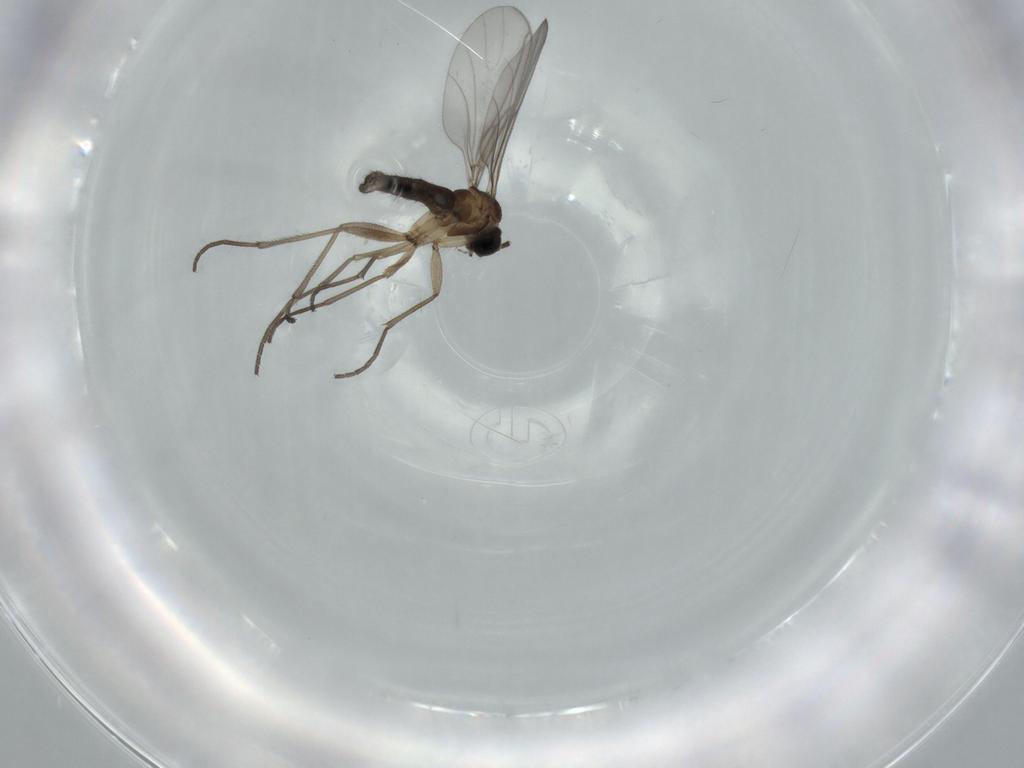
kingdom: Animalia
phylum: Arthropoda
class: Insecta
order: Diptera
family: Sciaridae
